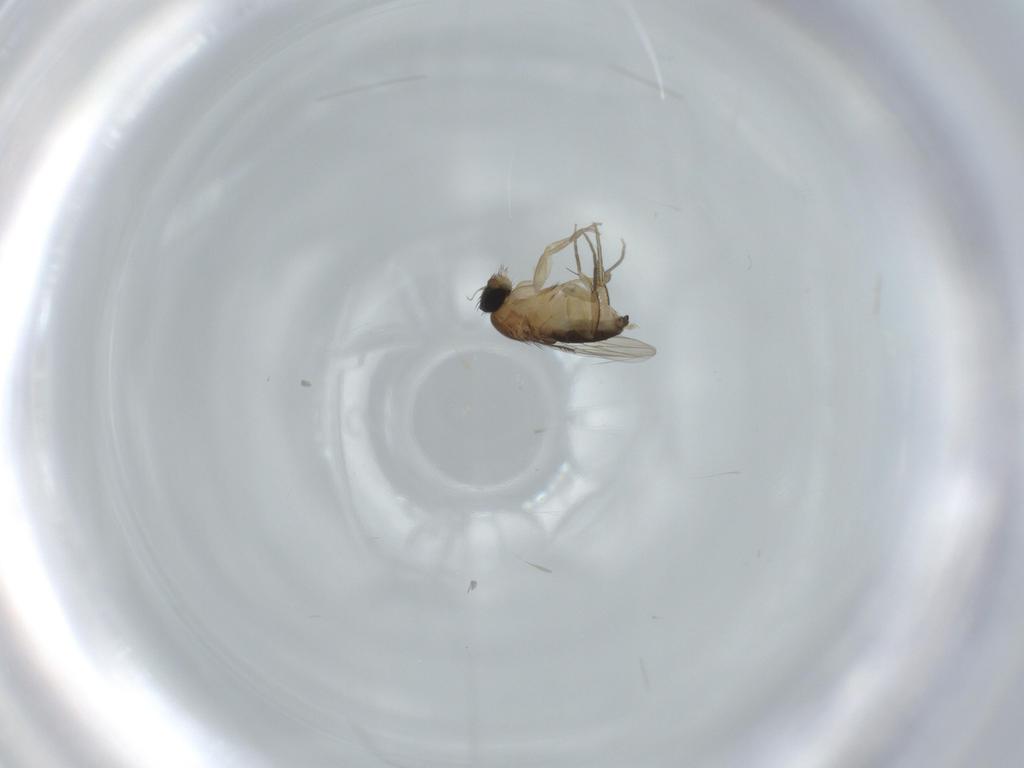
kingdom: Animalia
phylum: Arthropoda
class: Insecta
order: Diptera
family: Phoridae
